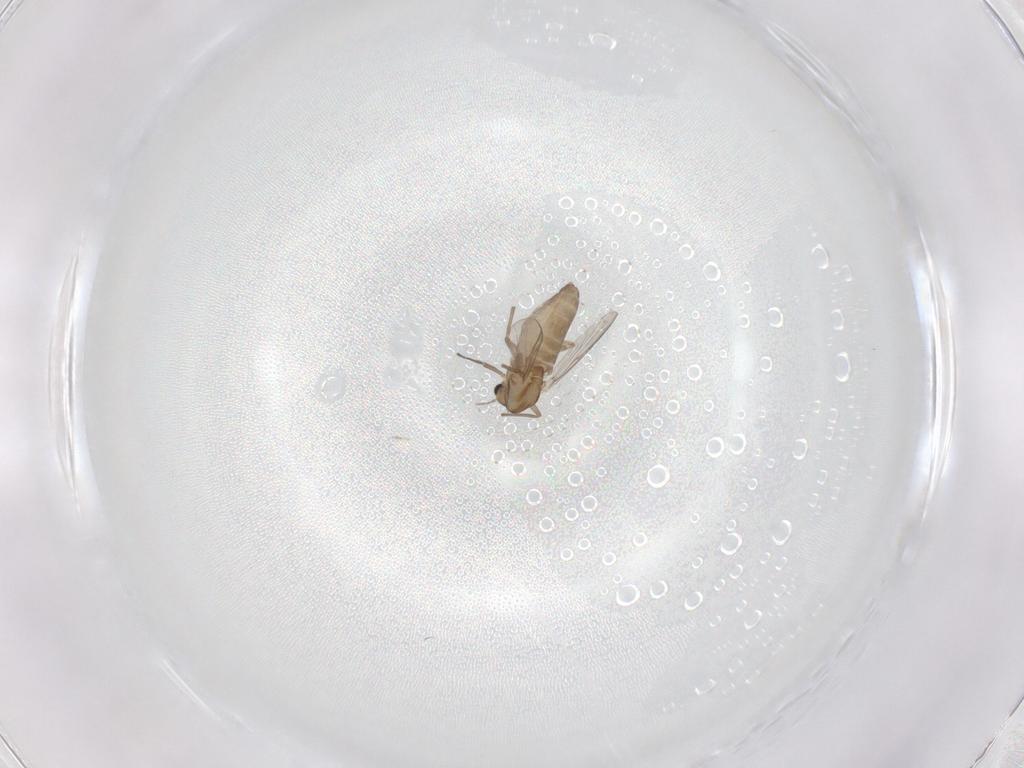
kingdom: Animalia
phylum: Arthropoda
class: Insecta
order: Diptera
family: Chironomidae
